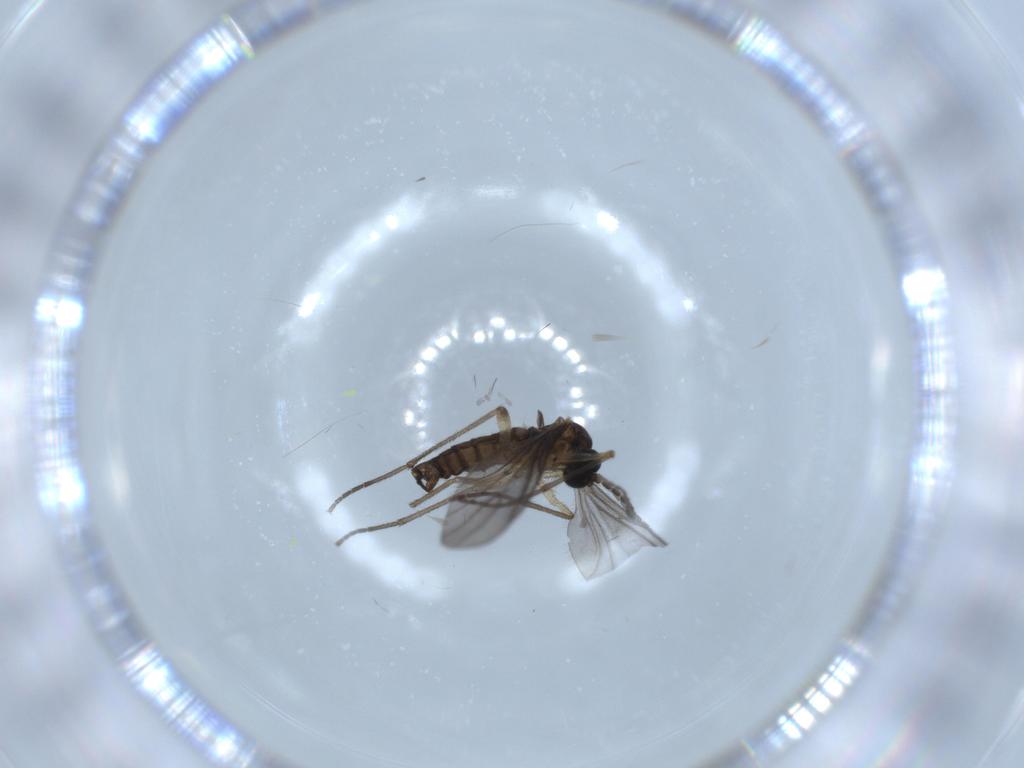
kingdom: Animalia
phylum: Arthropoda
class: Insecta
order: Diptera
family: Sciaridae
